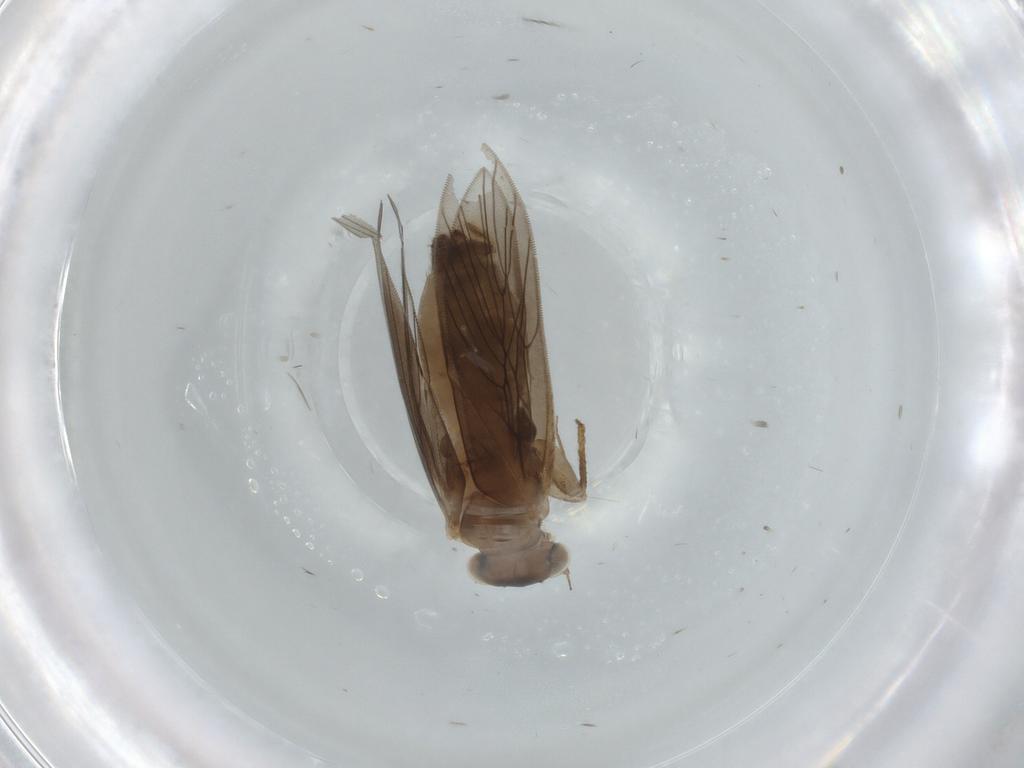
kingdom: Animalia
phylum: Arthropoda
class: Insecta
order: Psocodea
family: Lepidopsocidae
